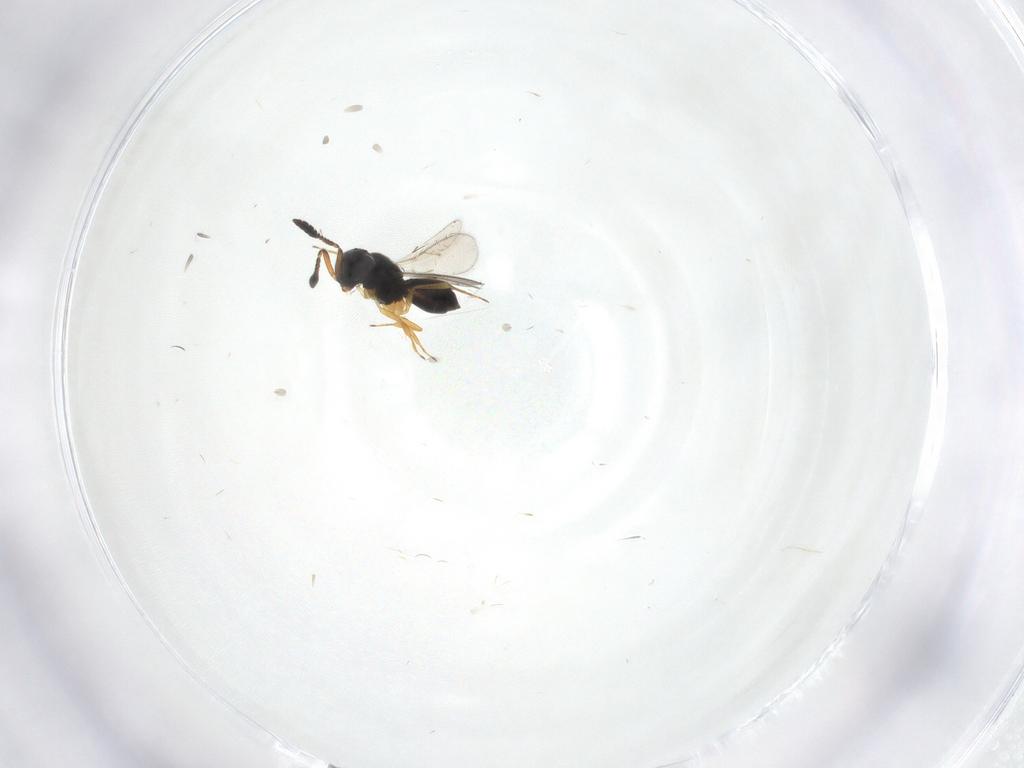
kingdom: Animalia
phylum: Arthropoda
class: Insecta
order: Hymenoptera
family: Scelionidae
